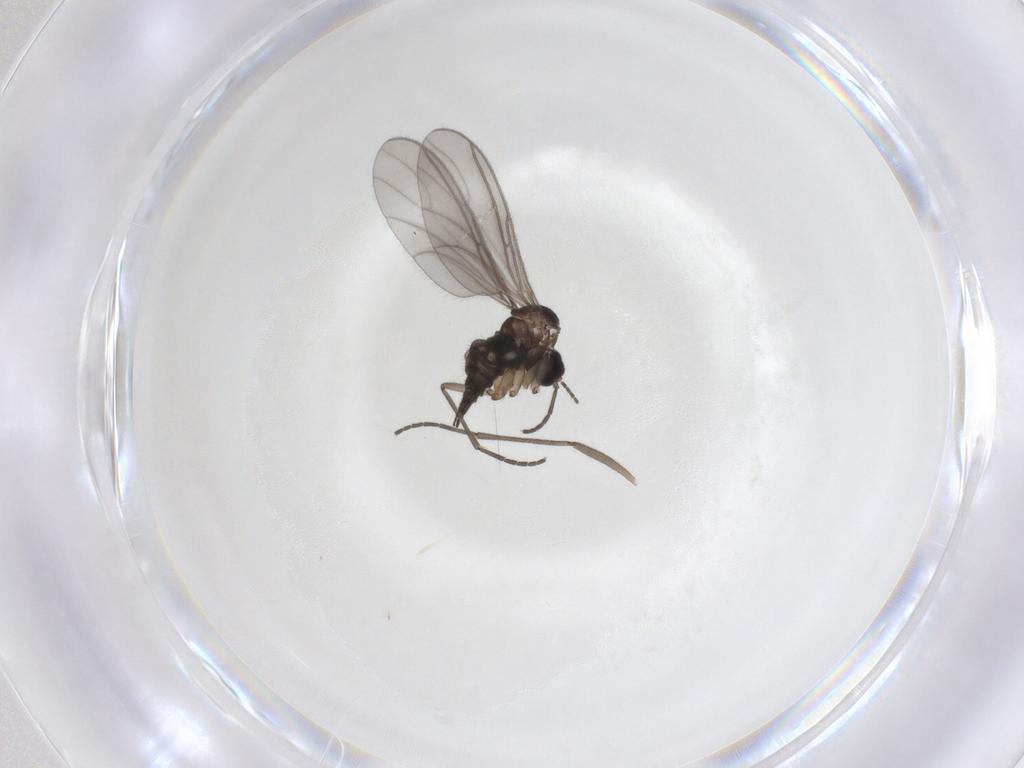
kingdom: Animalia
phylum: Arthropoda
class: Insecta
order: Diptera
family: Sciaridae
